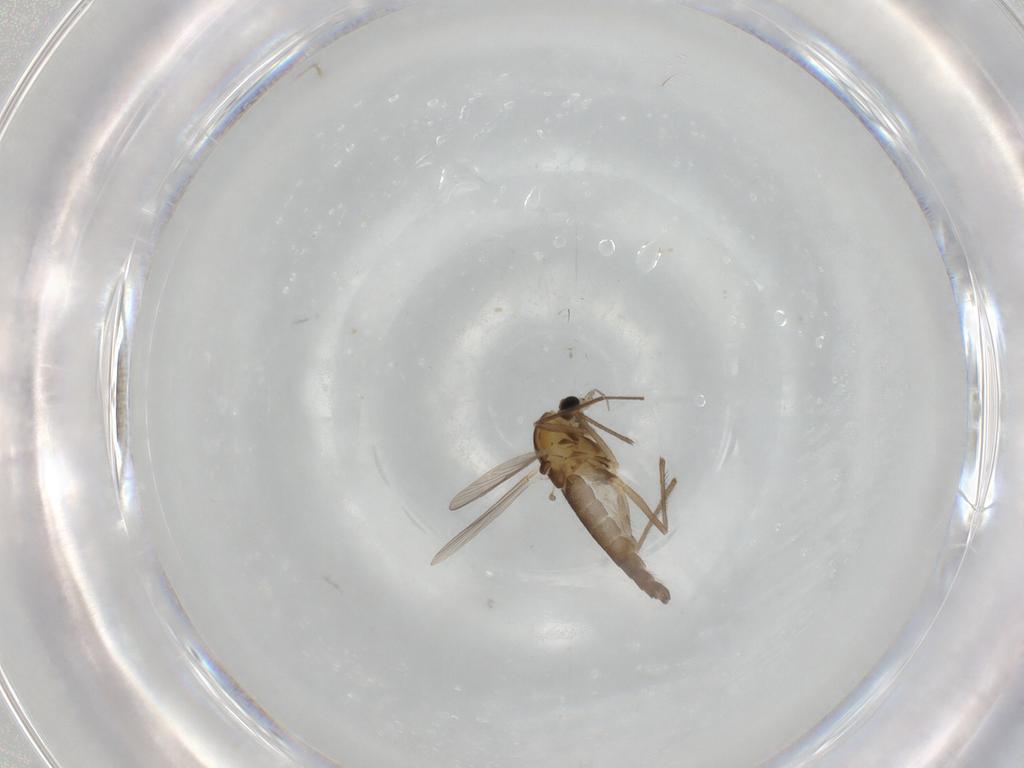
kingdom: Animalia
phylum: Arthropoda
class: Insecta
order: Diptera
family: Chironomidae
